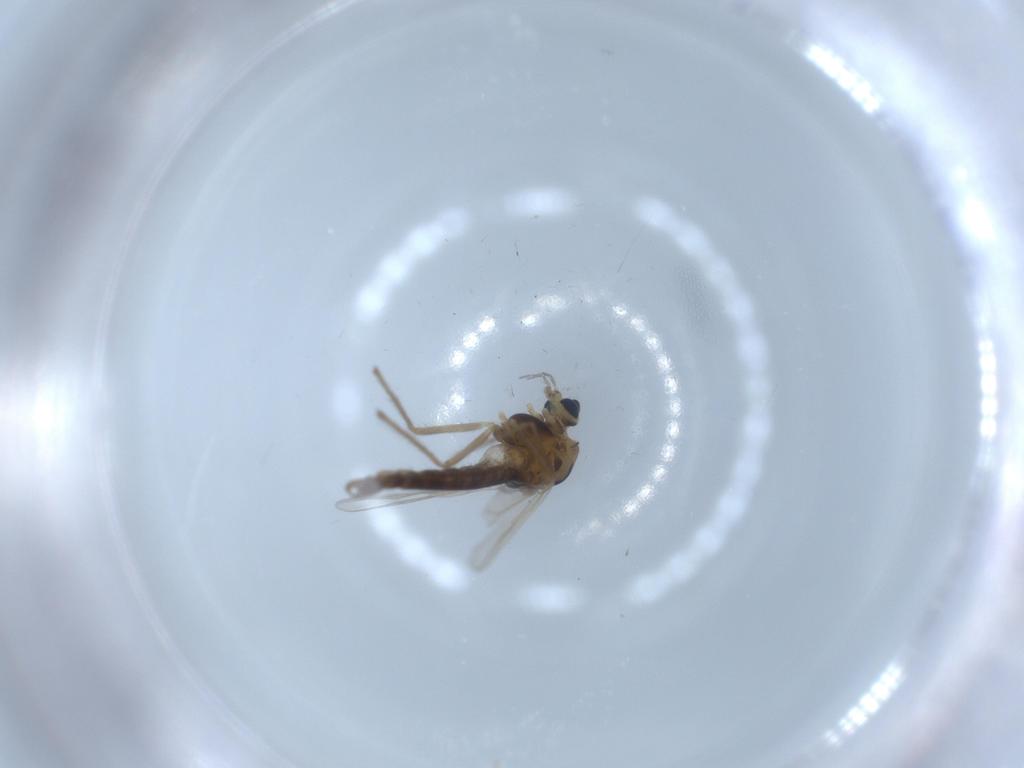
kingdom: Animalia
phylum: Arthropoda
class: Insecta
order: Diptera
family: Chironomidae
